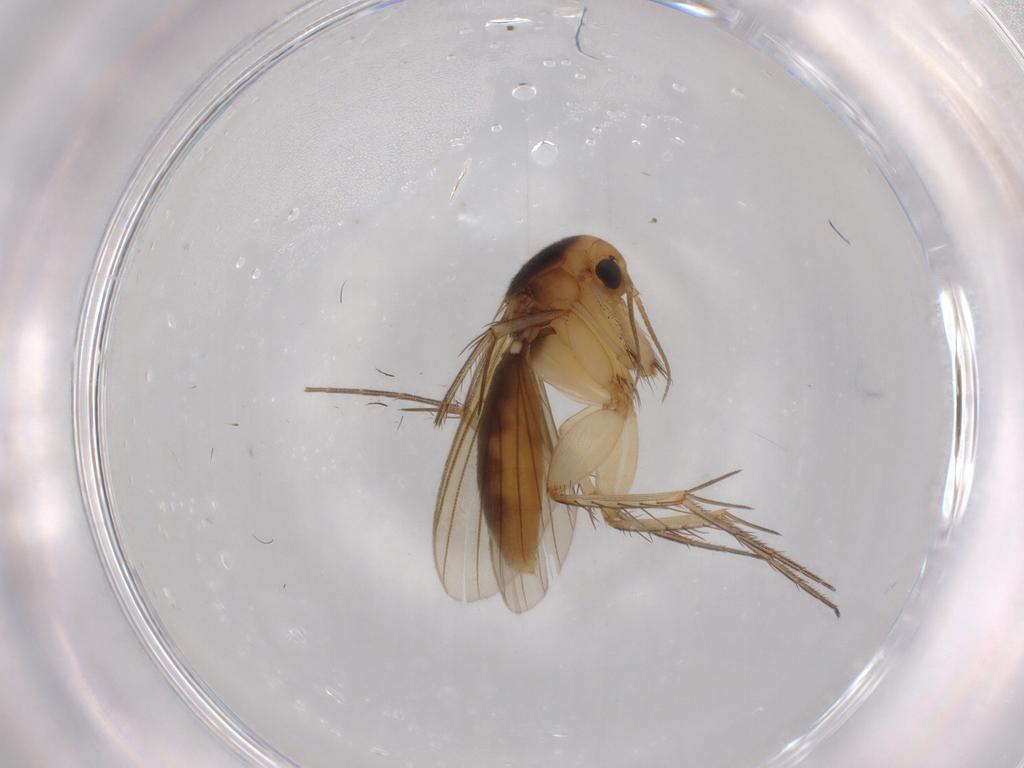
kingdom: Animalia
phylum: Arthropoda
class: Insecta
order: Diptera
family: Mycetophilidae
